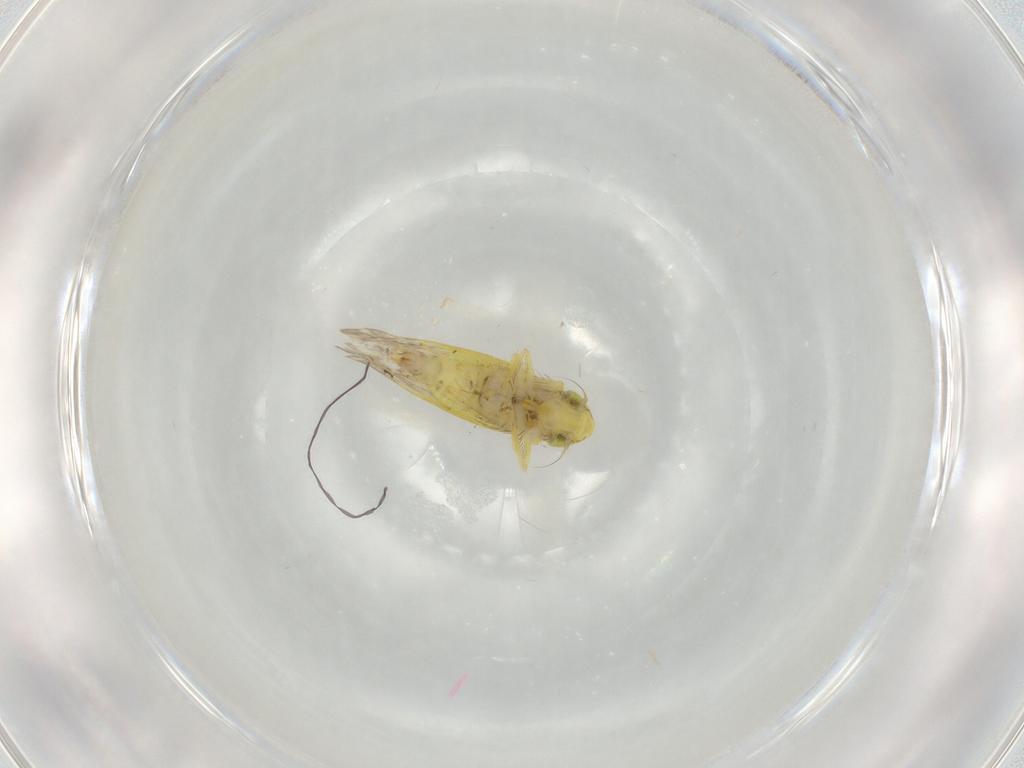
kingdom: Animalia
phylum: Arthropoda
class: Insecta
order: Hemiptera
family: Cicadellidae
